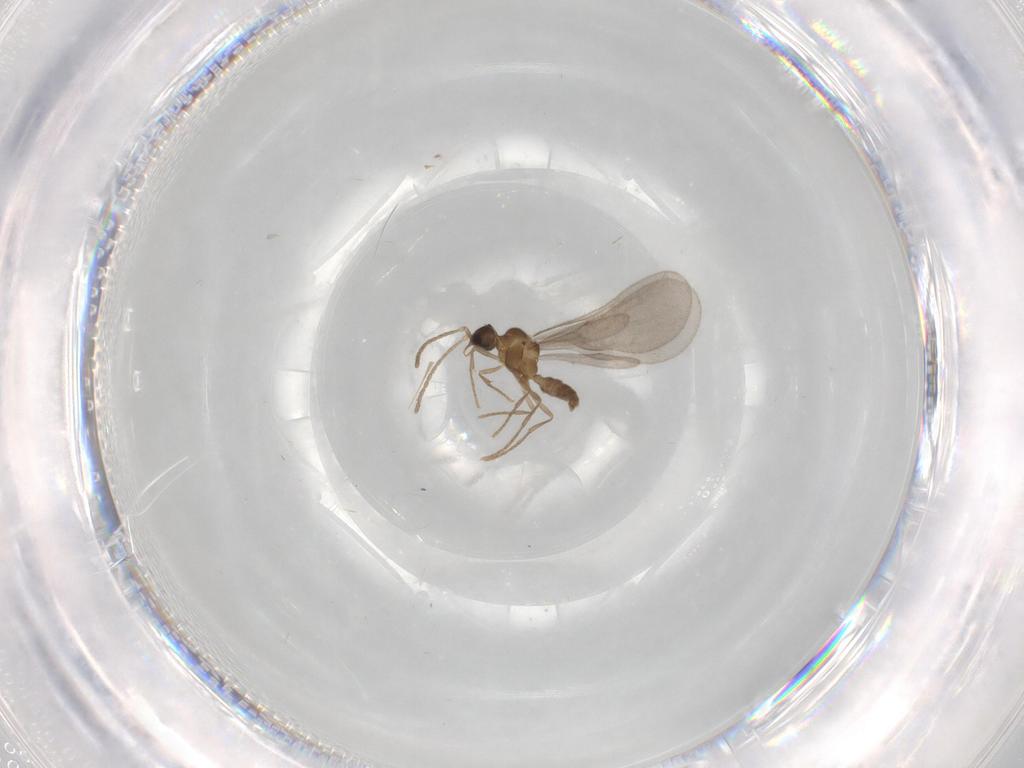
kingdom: Animalia
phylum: Arthropoda
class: Insecta
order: Hymenoptera
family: Formicidae
